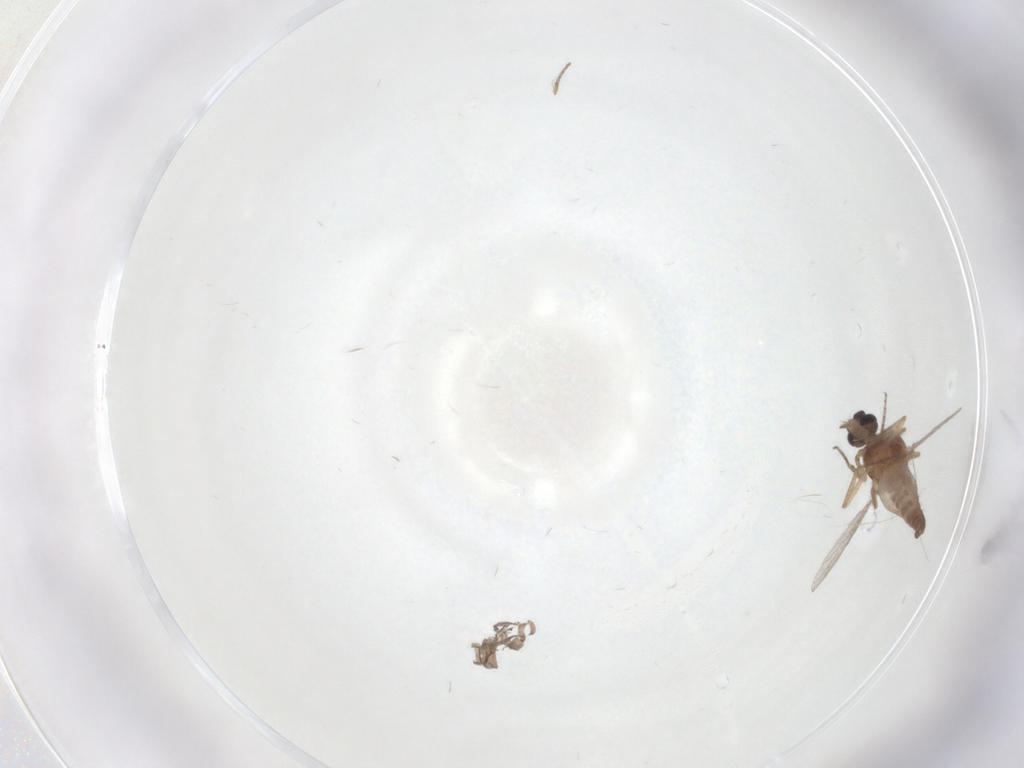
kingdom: Animalia
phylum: Arthropoda
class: Insecta
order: Diptera
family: Ceratopogonidae
